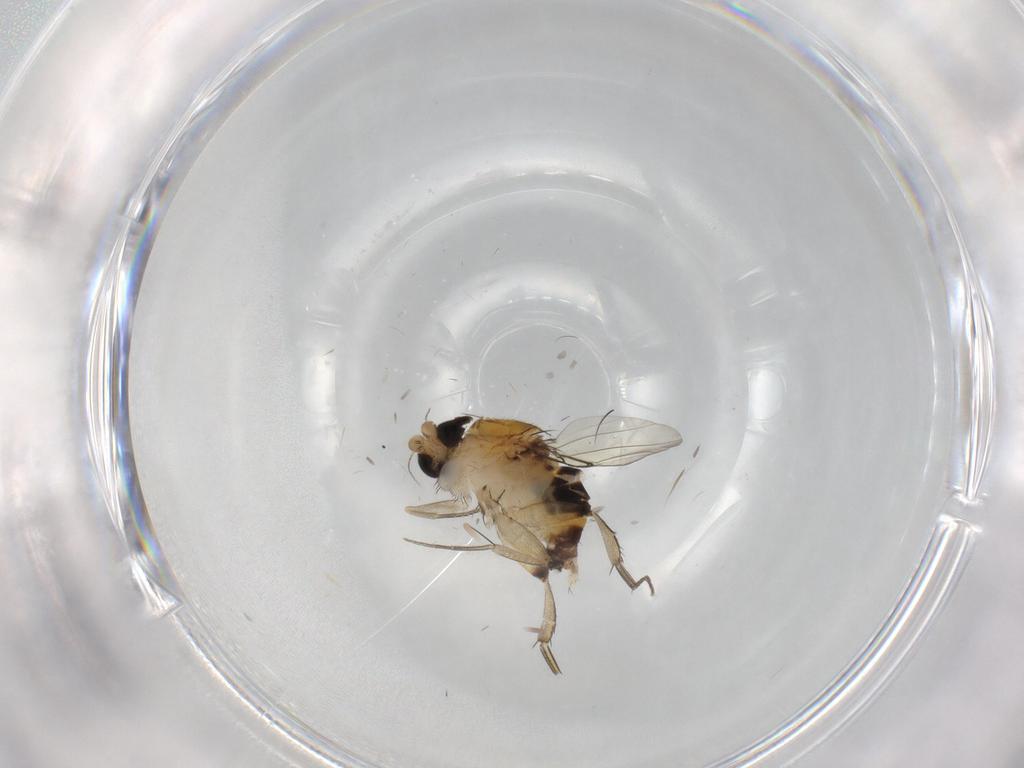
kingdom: Animalia
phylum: Arthropoda
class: Insecta
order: Diptera
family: Phoridae
